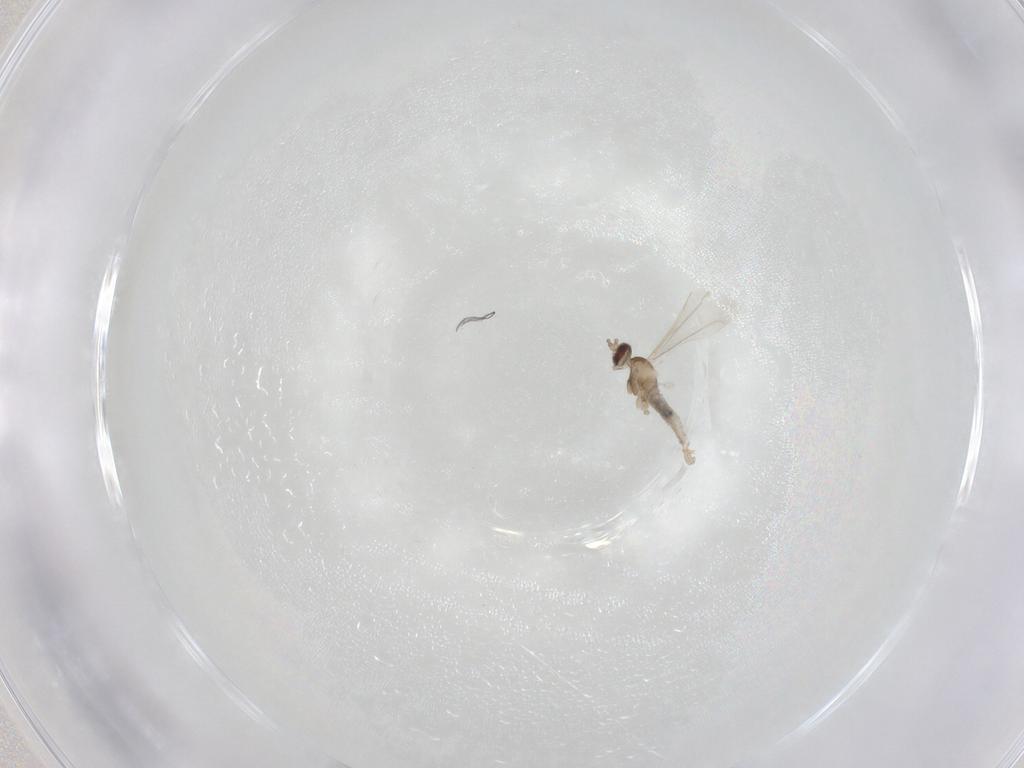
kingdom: Animalia
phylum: Arthropoda
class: Insecta
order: Diptera
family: Cecidomyiidae
